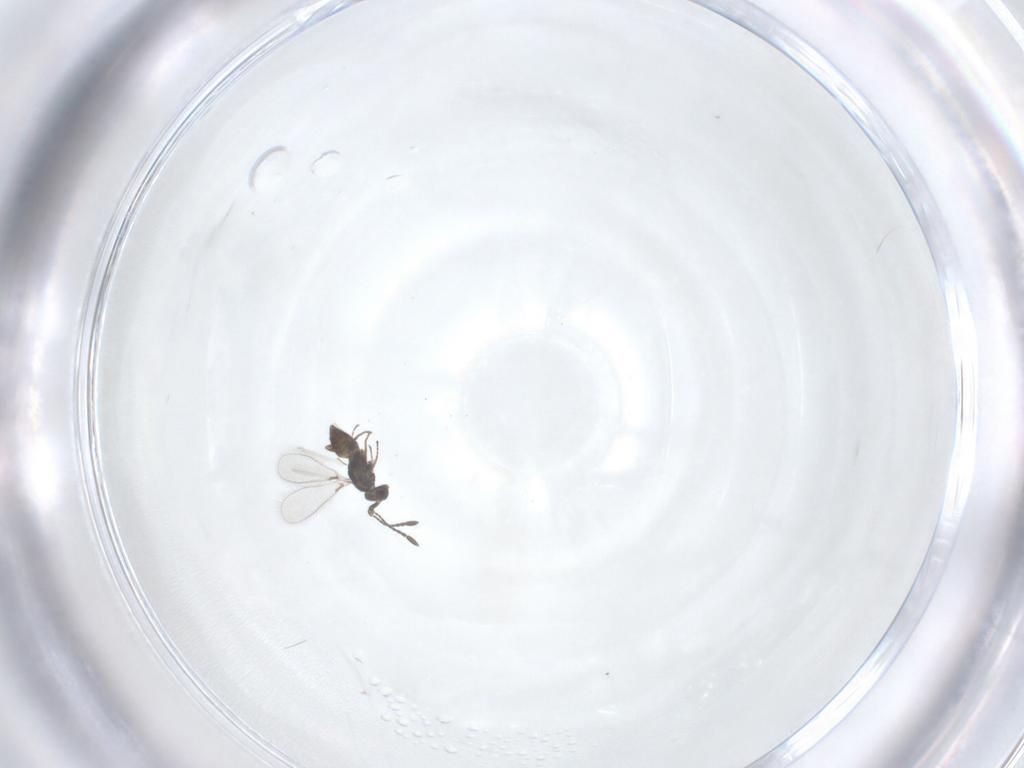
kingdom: Animalia
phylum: Arthropoda
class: Insecta
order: Hymenoptera
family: Mymaridae
